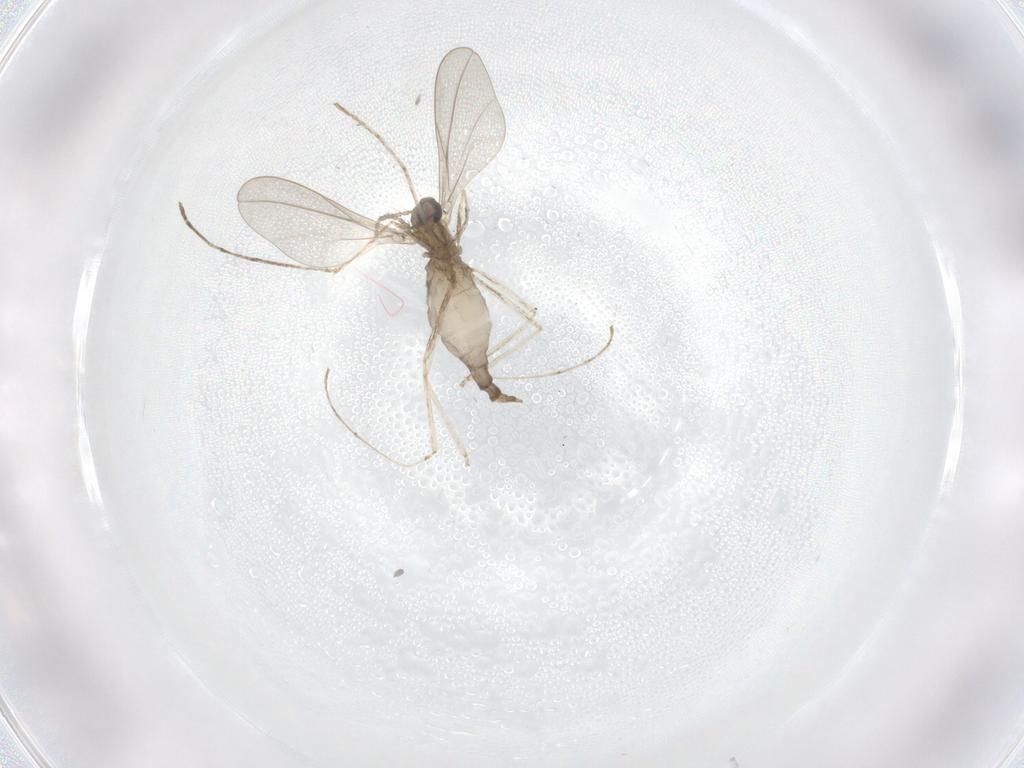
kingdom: Animalia
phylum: Arthropoda
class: Insecta
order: Diptera
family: Cecidomyiidae
